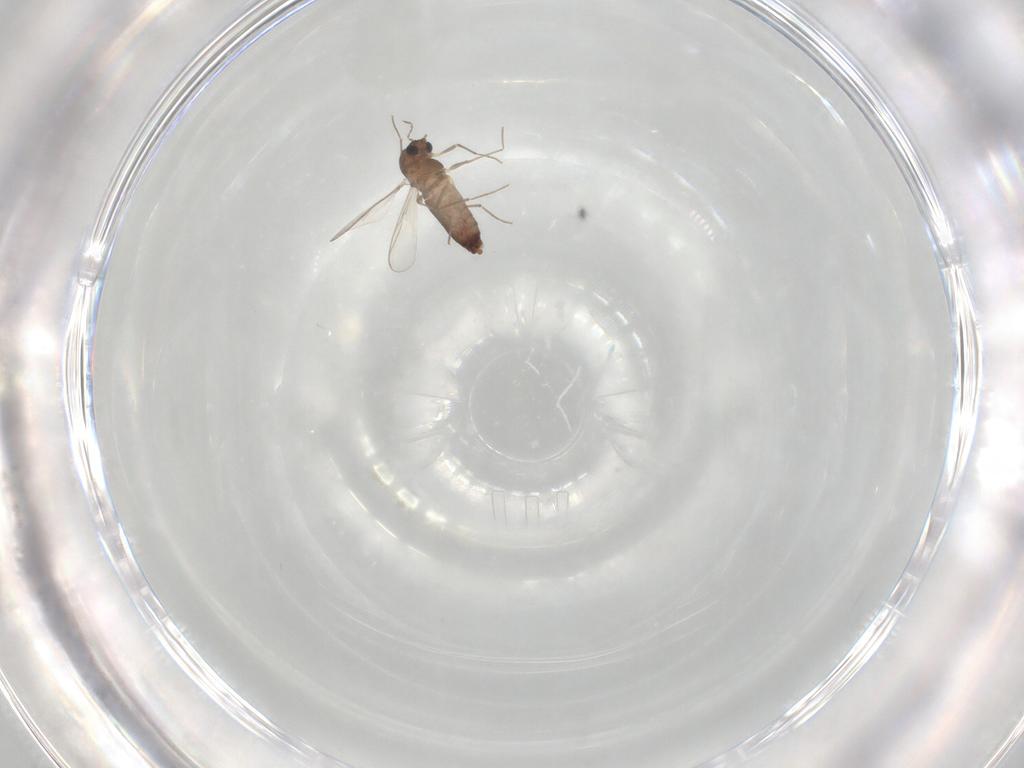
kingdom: Animalia
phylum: Arthropoda
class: Insecta
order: Diptera
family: Chironomidae
